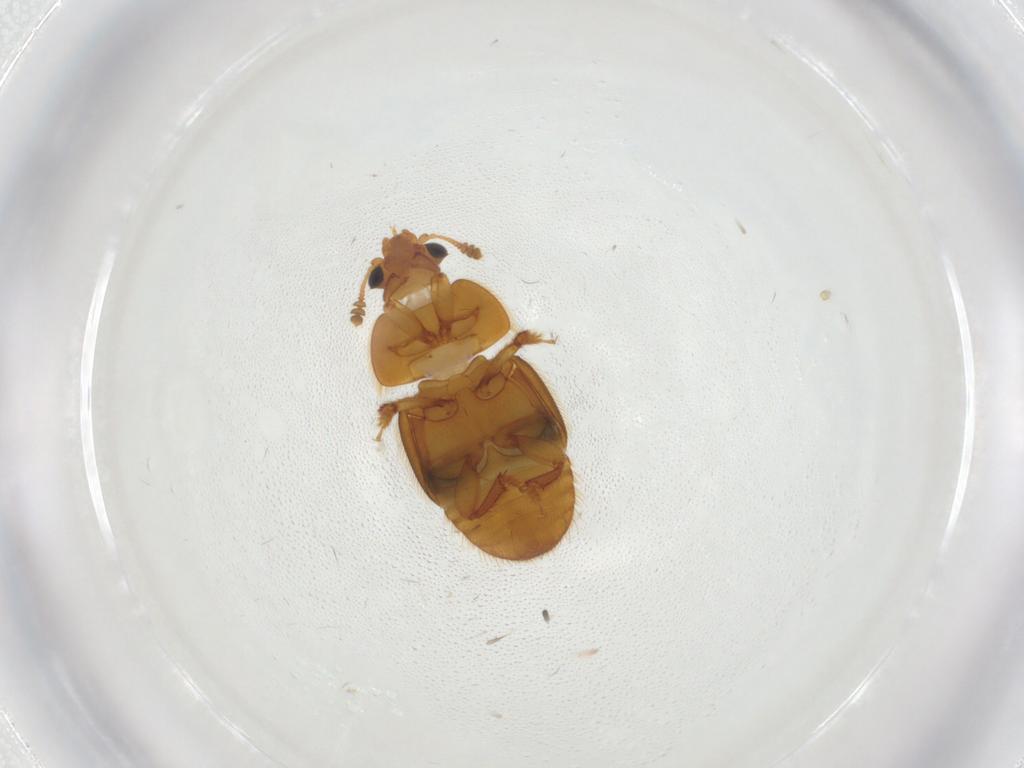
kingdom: Animalia
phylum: Arthropoda
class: Insecta
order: Coleoptera
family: Nitidulidae
